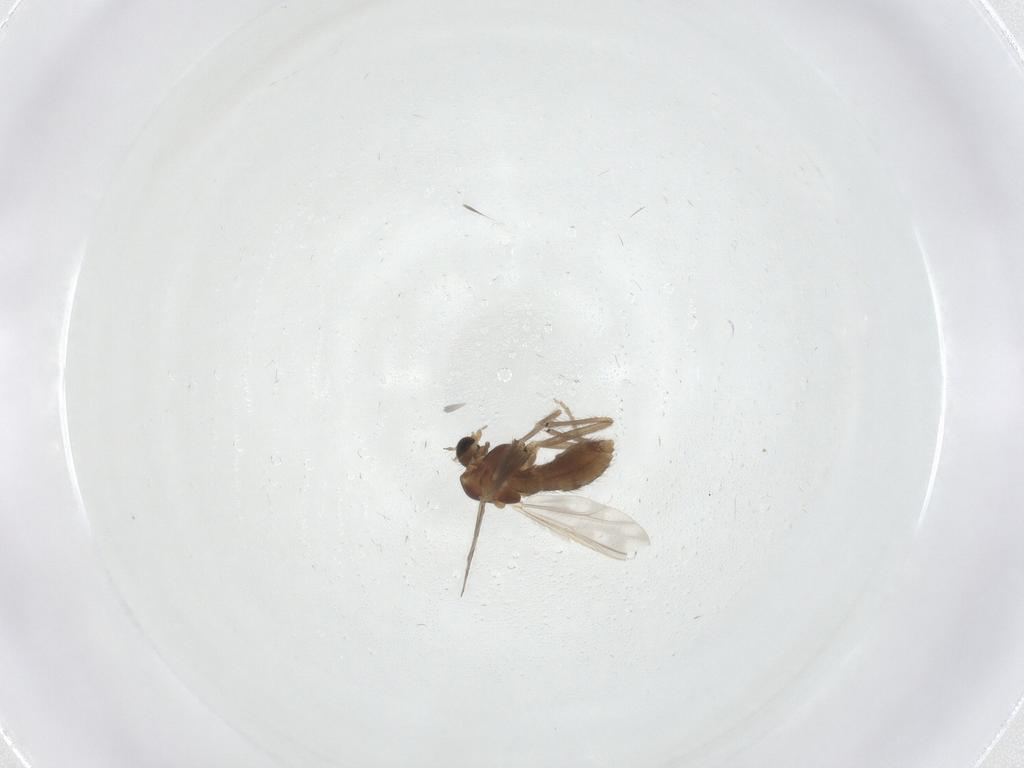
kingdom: Animalia
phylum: Arthropoda
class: Insecta
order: Diptera
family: Chironomidae
